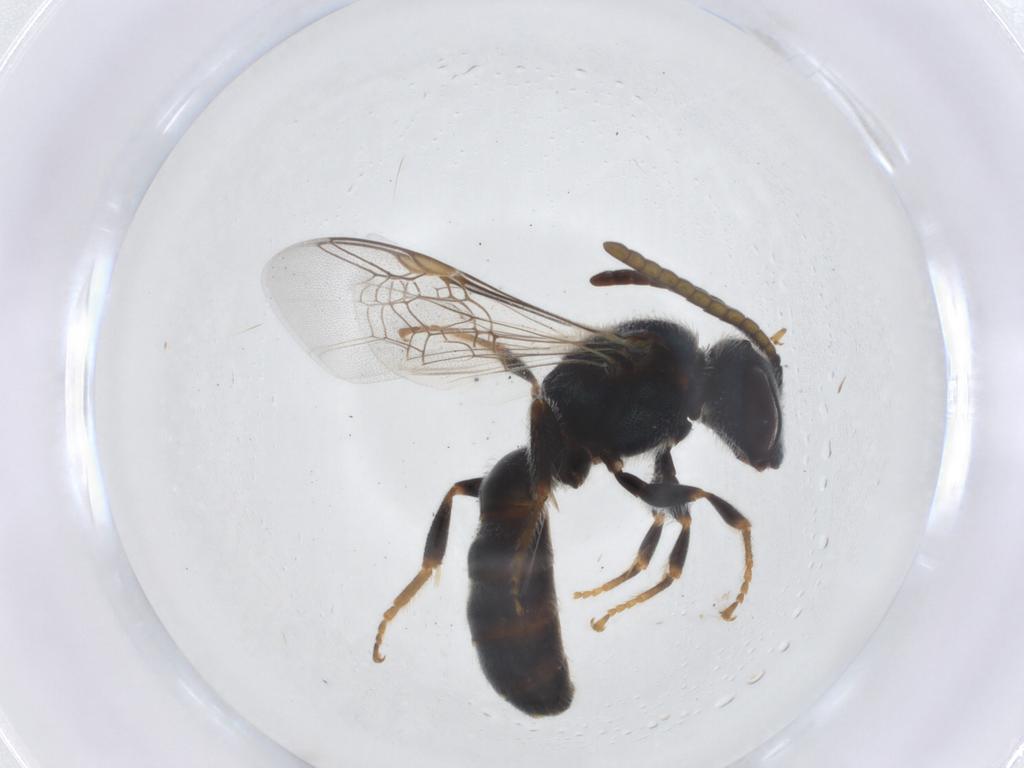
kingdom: Animalia
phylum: Arthropoda
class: Insecta
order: Hymenoptera
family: Halictidae
